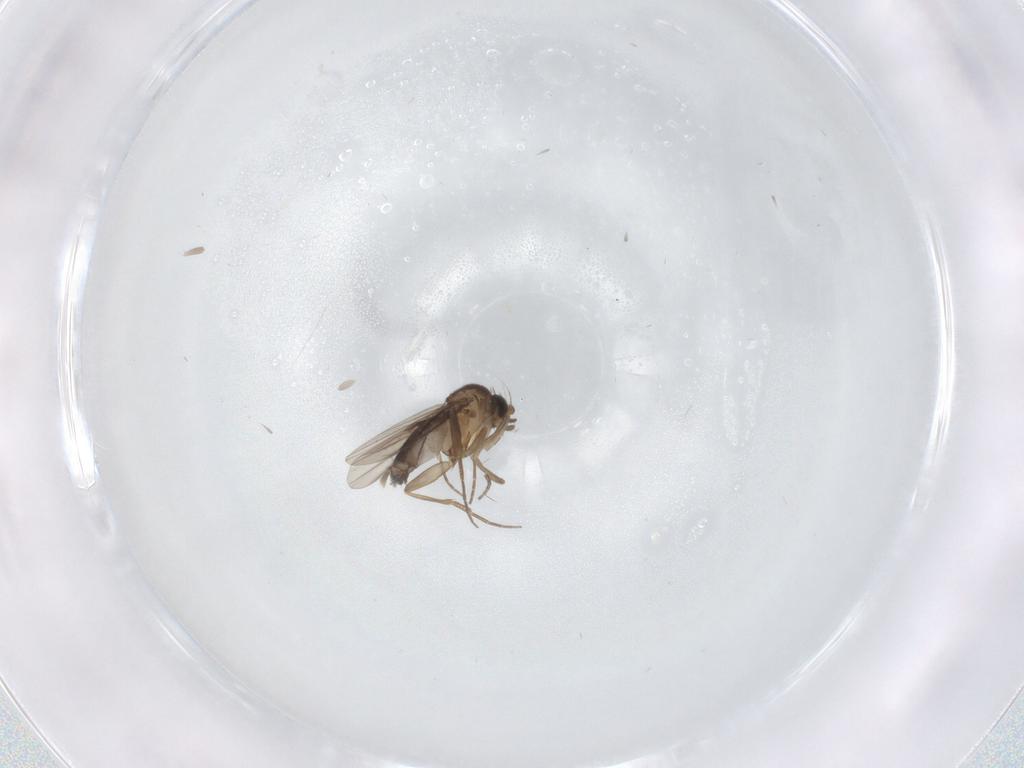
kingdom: Animalia
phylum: Arthropoda
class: Insecta
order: Diptera
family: Phoridae
